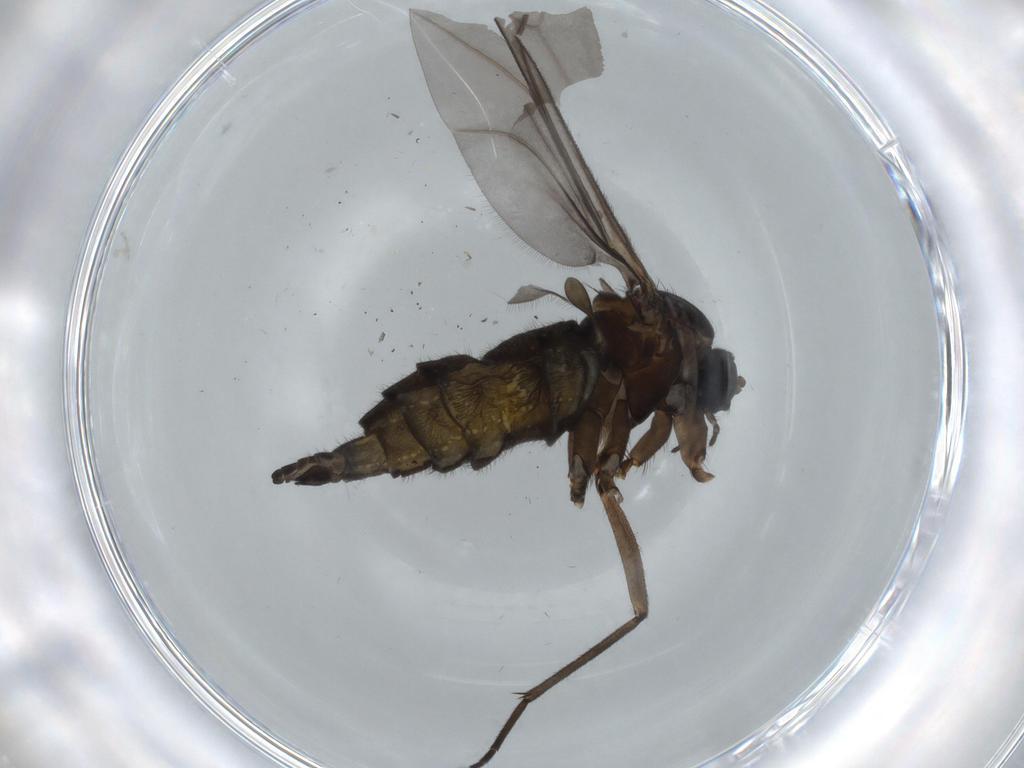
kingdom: Animalia
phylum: Arthropoda
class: Insecta
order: Diptera
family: Sciaridae
